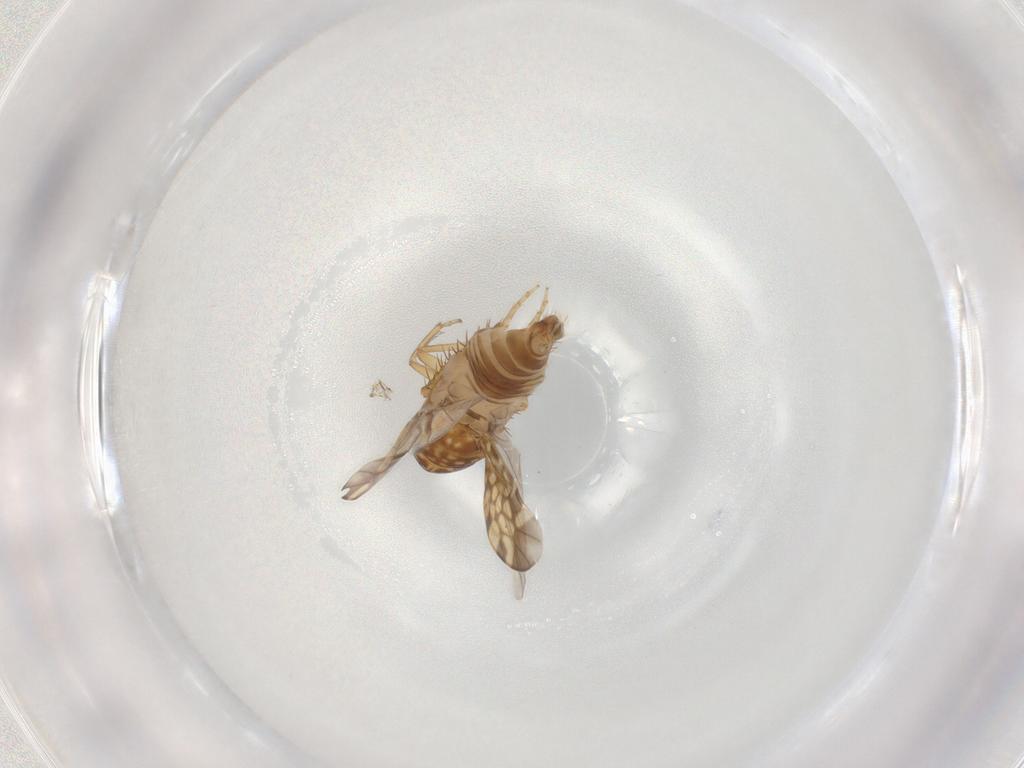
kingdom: Animalia
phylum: Arthropoda
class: Insecta
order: Hemiptera
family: Cicadellidae
